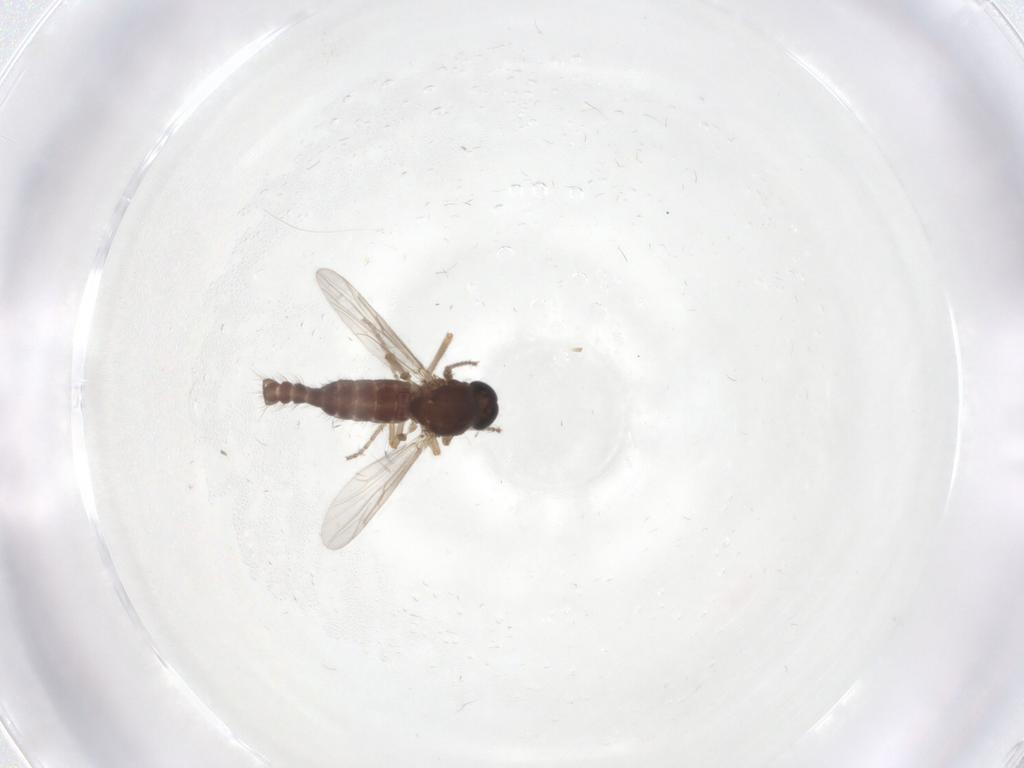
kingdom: Animalia
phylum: Arthropoda
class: Insecta
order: Diptera
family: Ceratopogonidae
